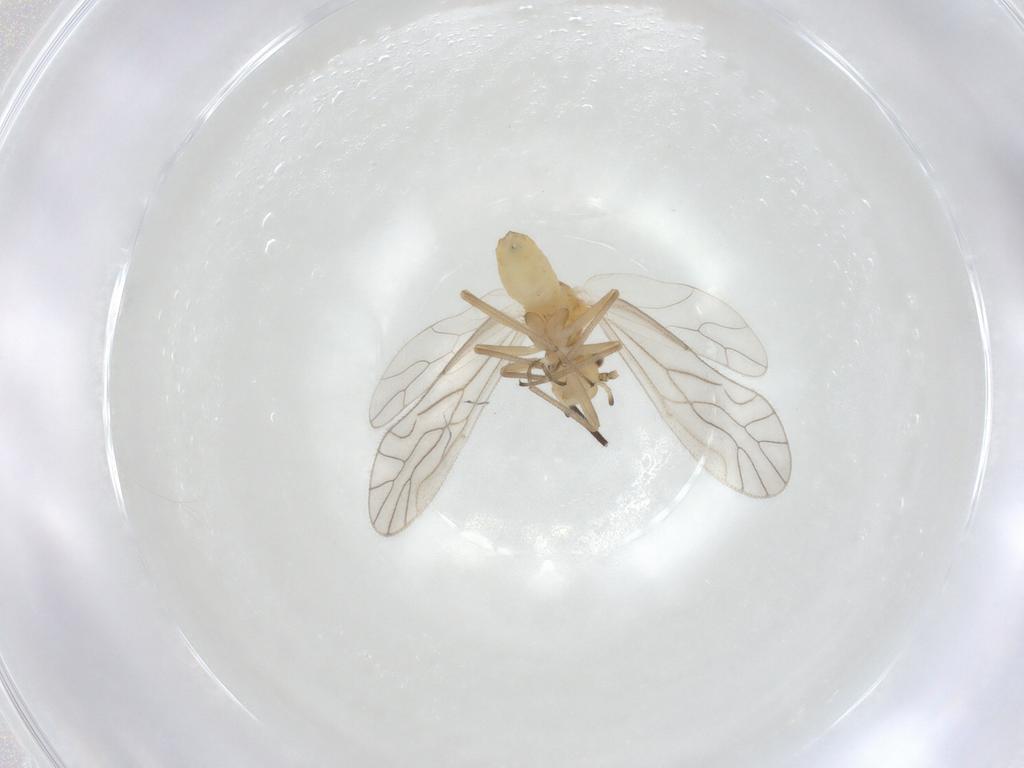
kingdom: Animalia
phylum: Arthropoda
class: Insecta
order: Psocodea
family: Caeciliusidae
